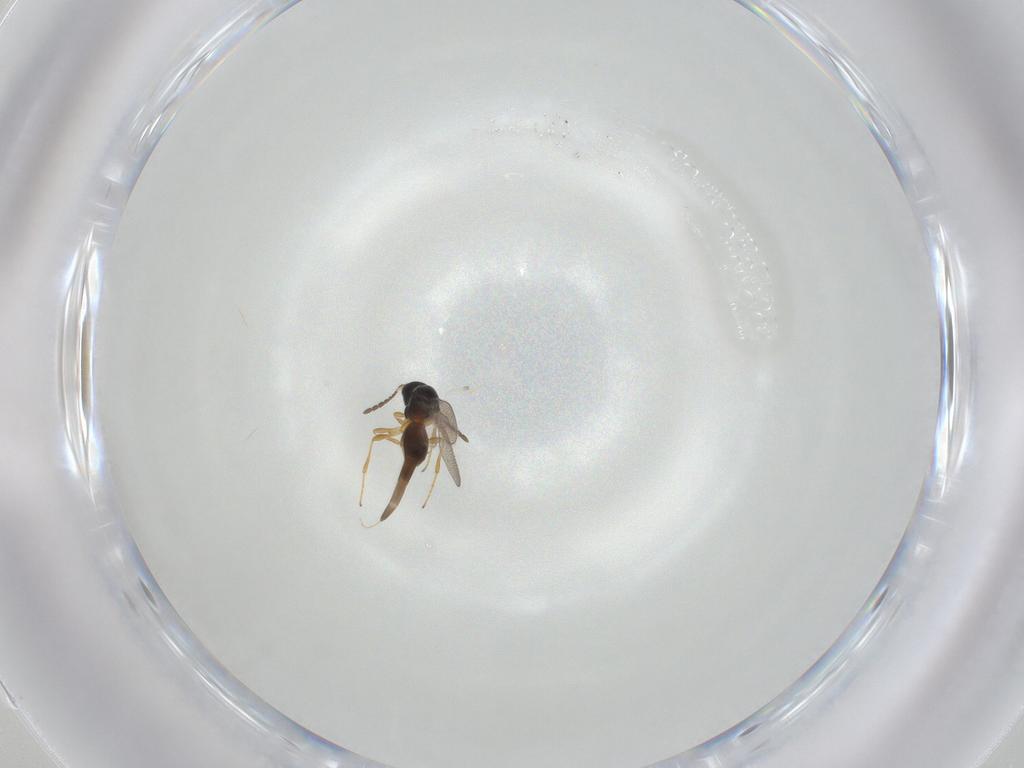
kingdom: Animalia
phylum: Arthropoda
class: Insecta
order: Hymenoptera
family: Platygastridae
